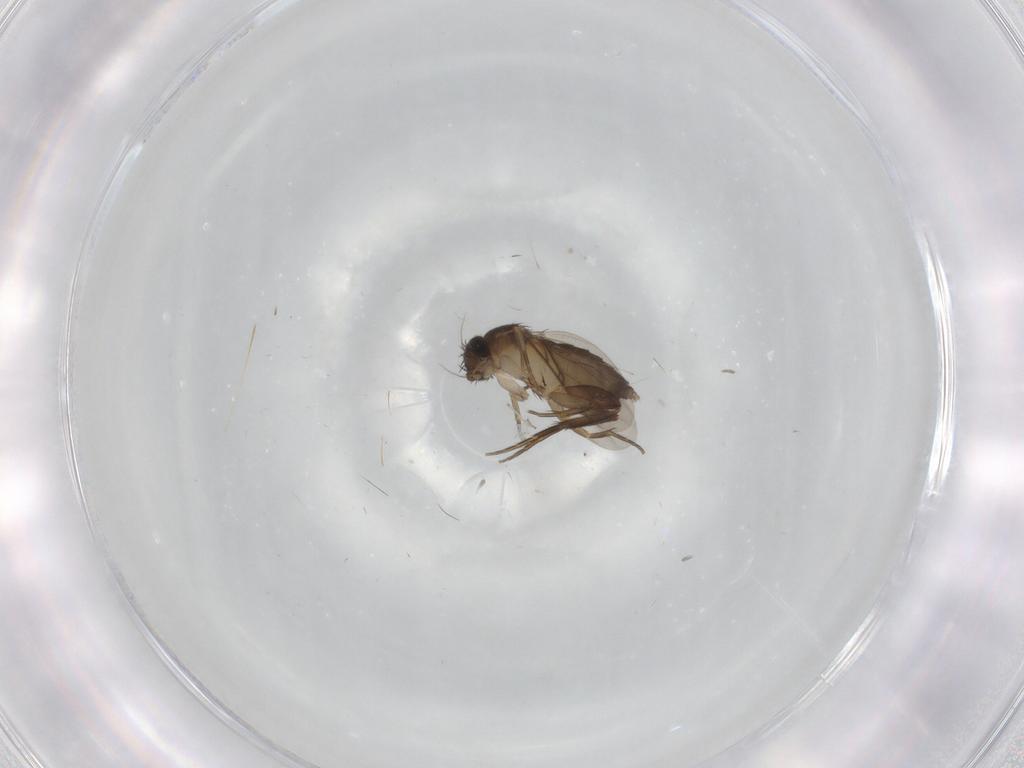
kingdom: Animalia
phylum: Arthropoda
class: Insecta
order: Diptera
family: Phoridae
